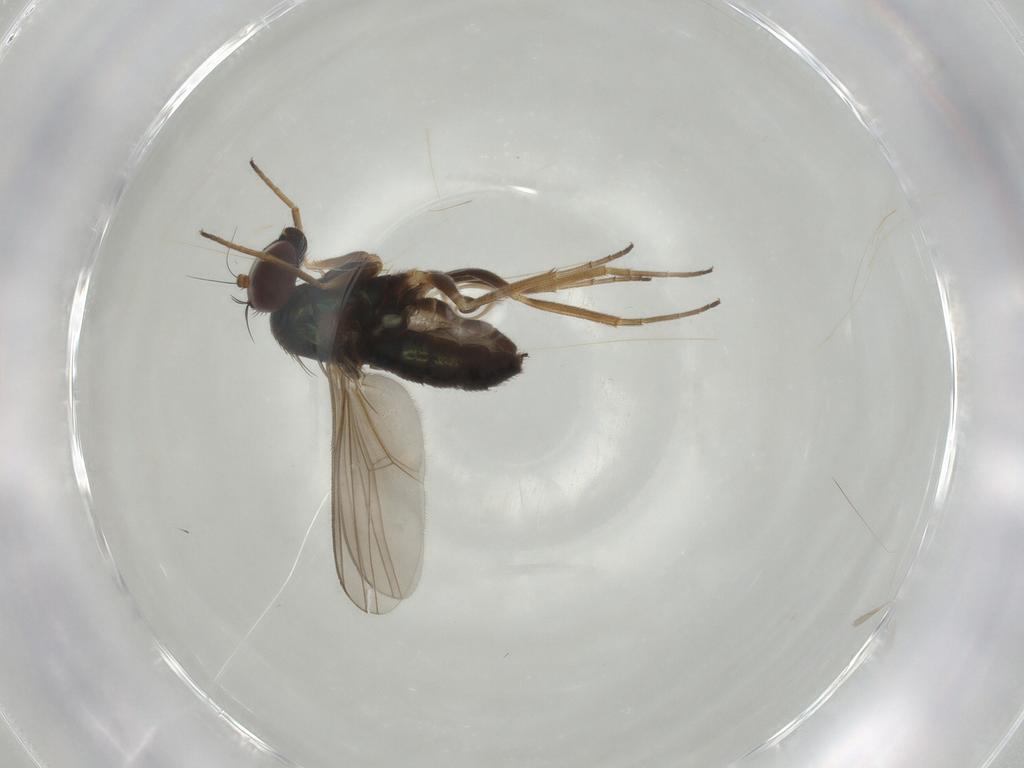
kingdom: Animalia
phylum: Arthropoda
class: Insecta
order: Diptera
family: Dolichopodidae
